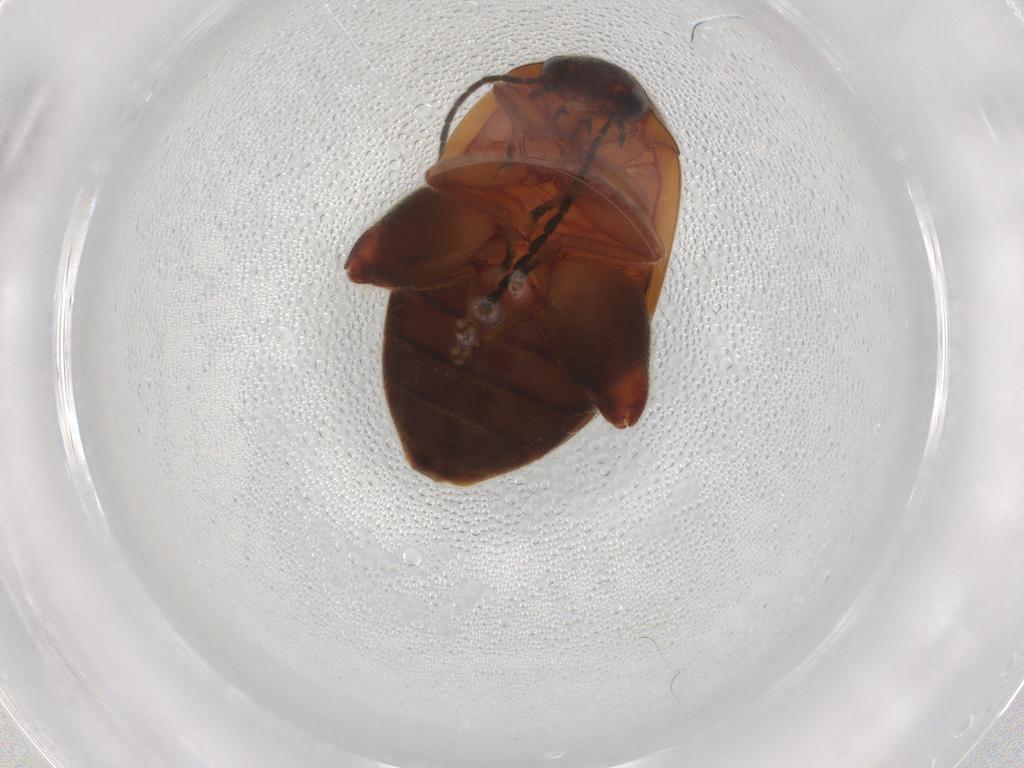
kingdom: Animalia
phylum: Arthropoda
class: Insecta
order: Coleoptera
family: Scirtidae
